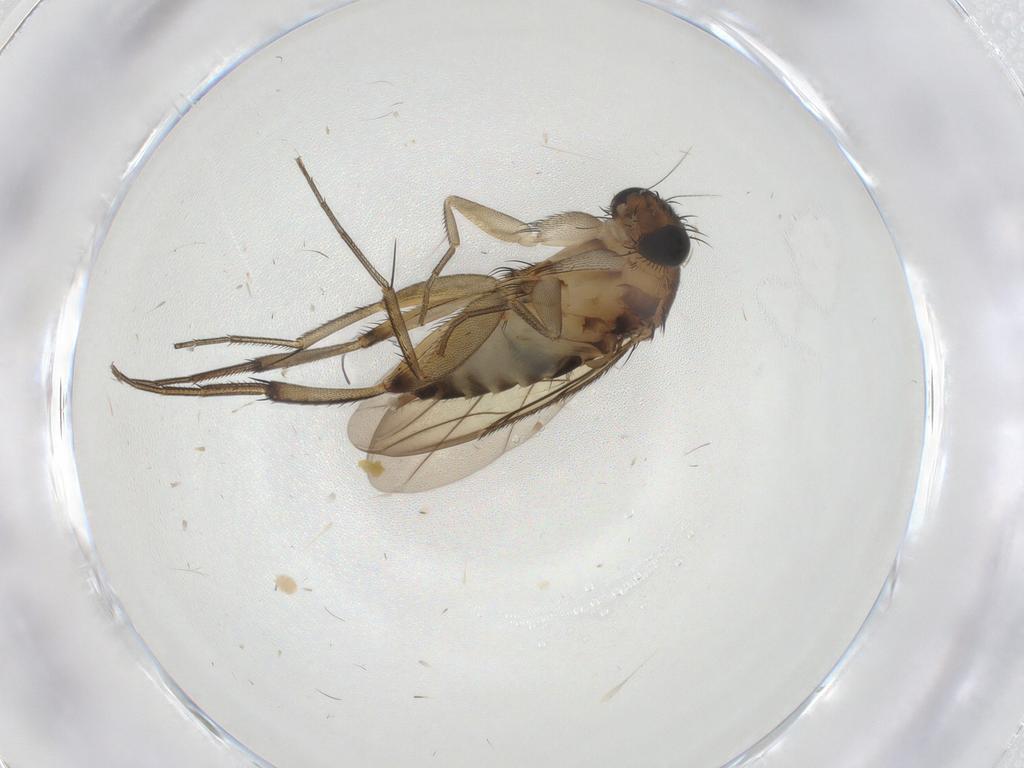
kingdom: Animalia
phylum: Arthropoda
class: Insecta
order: Diptera
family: Phoridae
